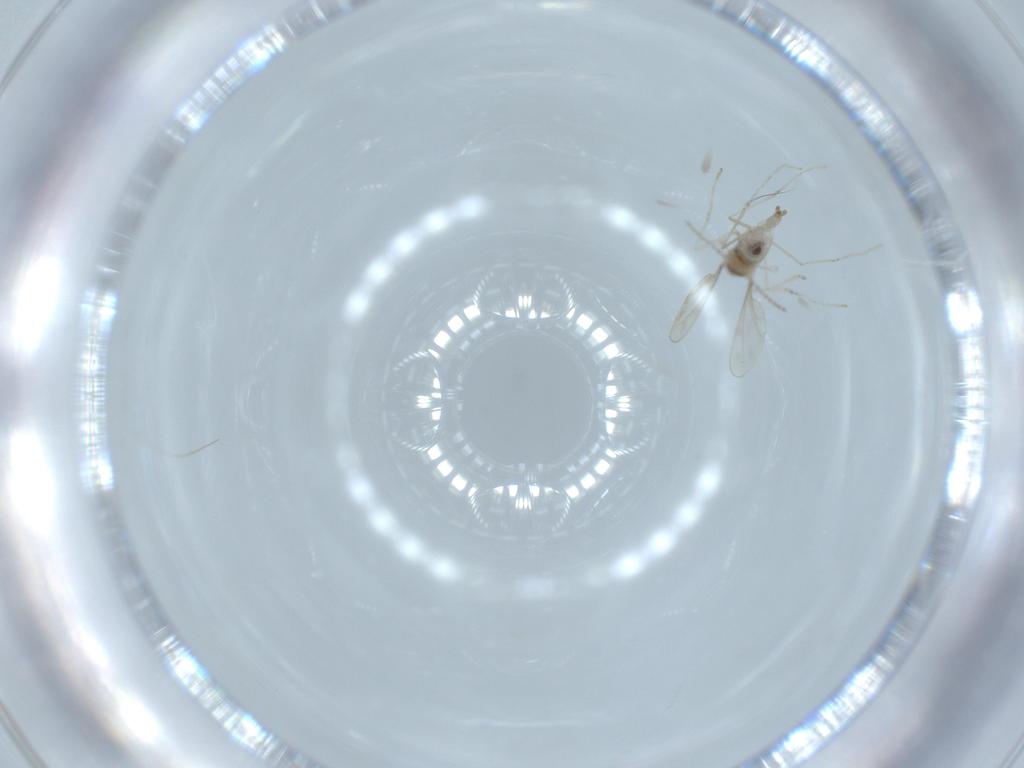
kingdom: Animalia
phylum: Arthropoda
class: Insecta
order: Diptera
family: Cecidomyiidae
